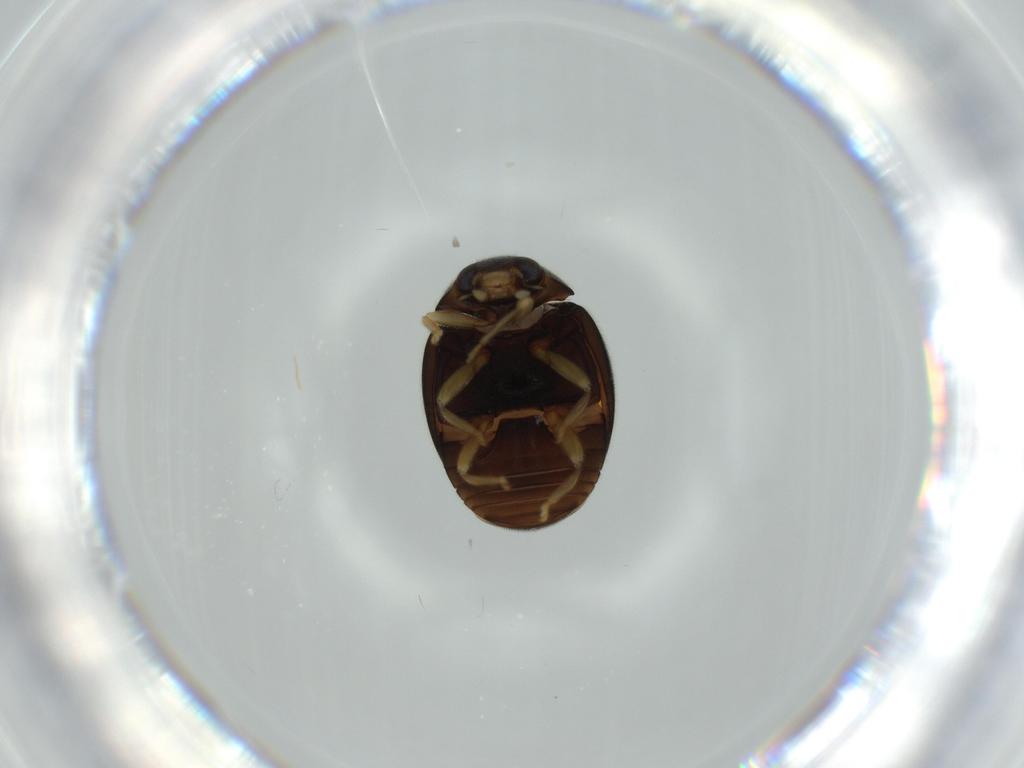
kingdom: Animalia
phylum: Arthropoda
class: Insecta
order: Coleoptera
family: Coccinellidae
